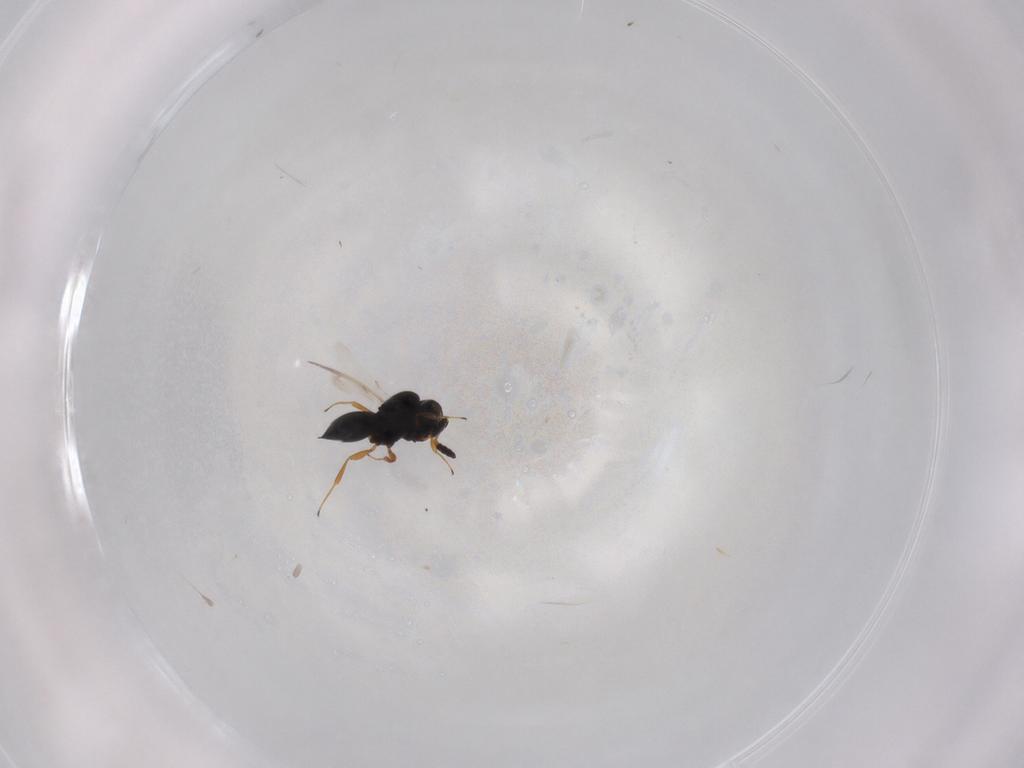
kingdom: Animalia
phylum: Arthropoda
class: Insecta
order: Hymenoptera
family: Scelionidae
